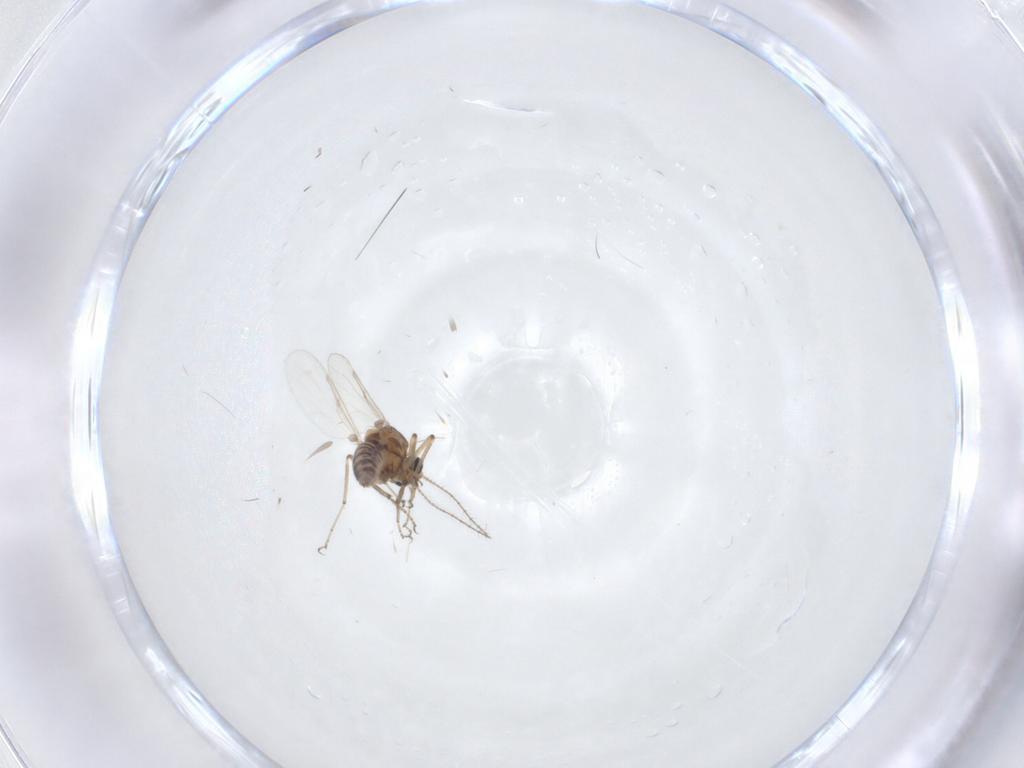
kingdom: Animalia
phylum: Arthropoda
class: Insecta
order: Diptera
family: Ceratopogonidae
